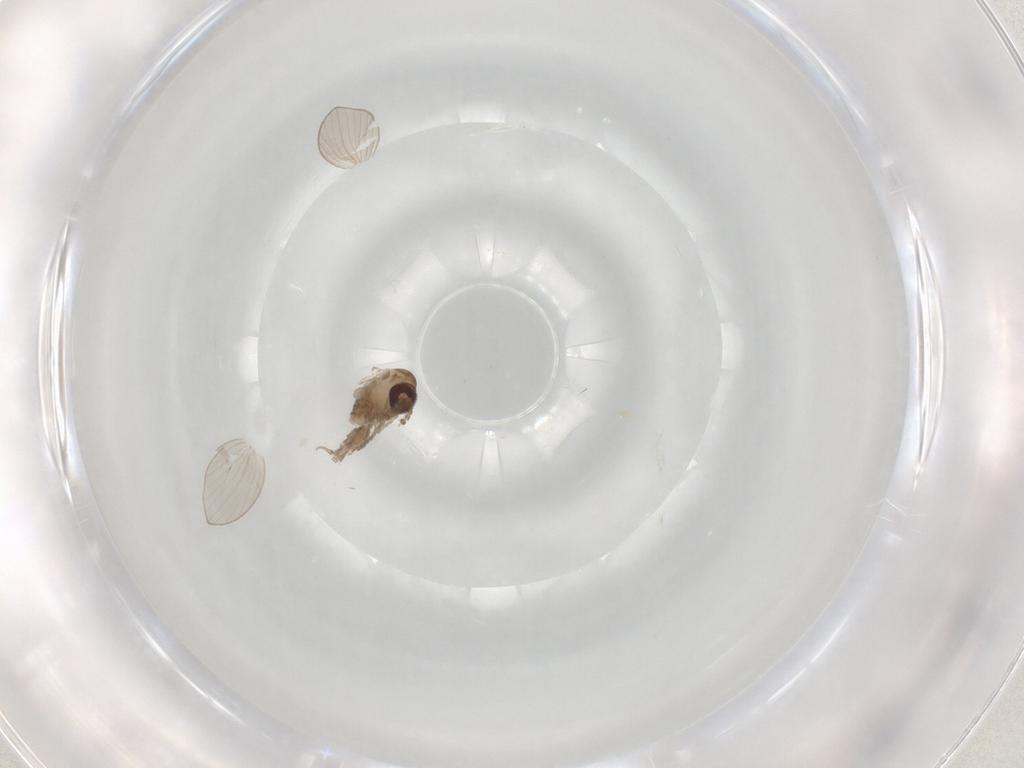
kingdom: Animalia
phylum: Arthropoda
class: Insecta
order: Diptera
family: Psychodidae
